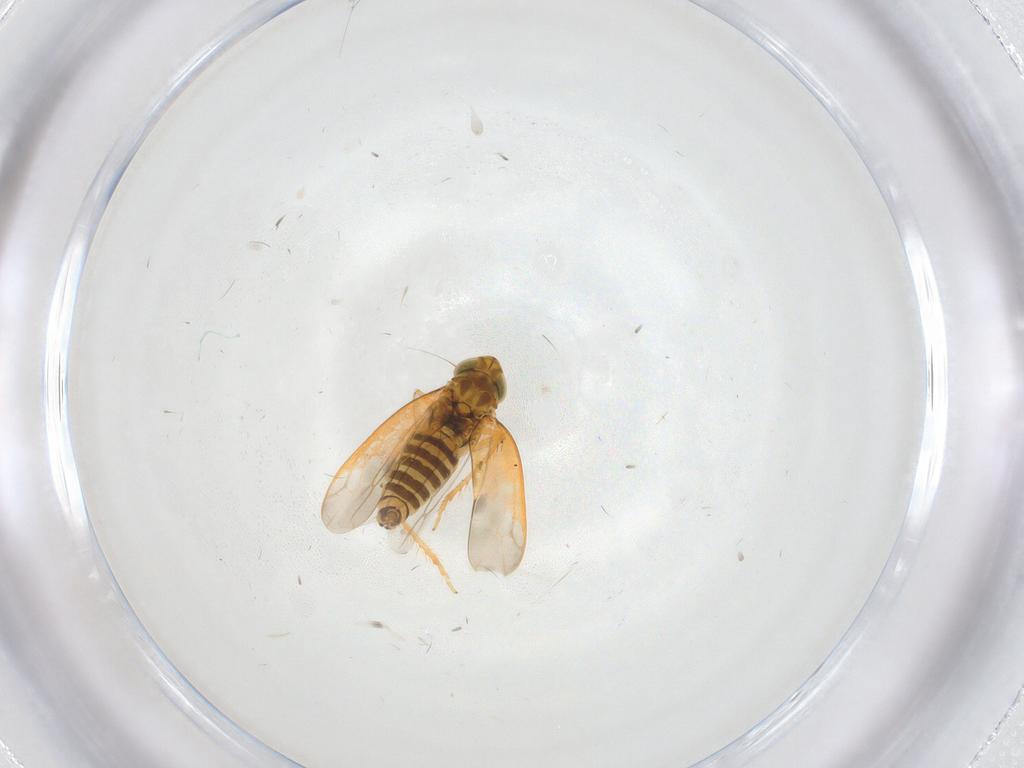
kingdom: Animalia
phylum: Arthropoda
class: Insecta
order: Hemiptera
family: Cicadellidae
